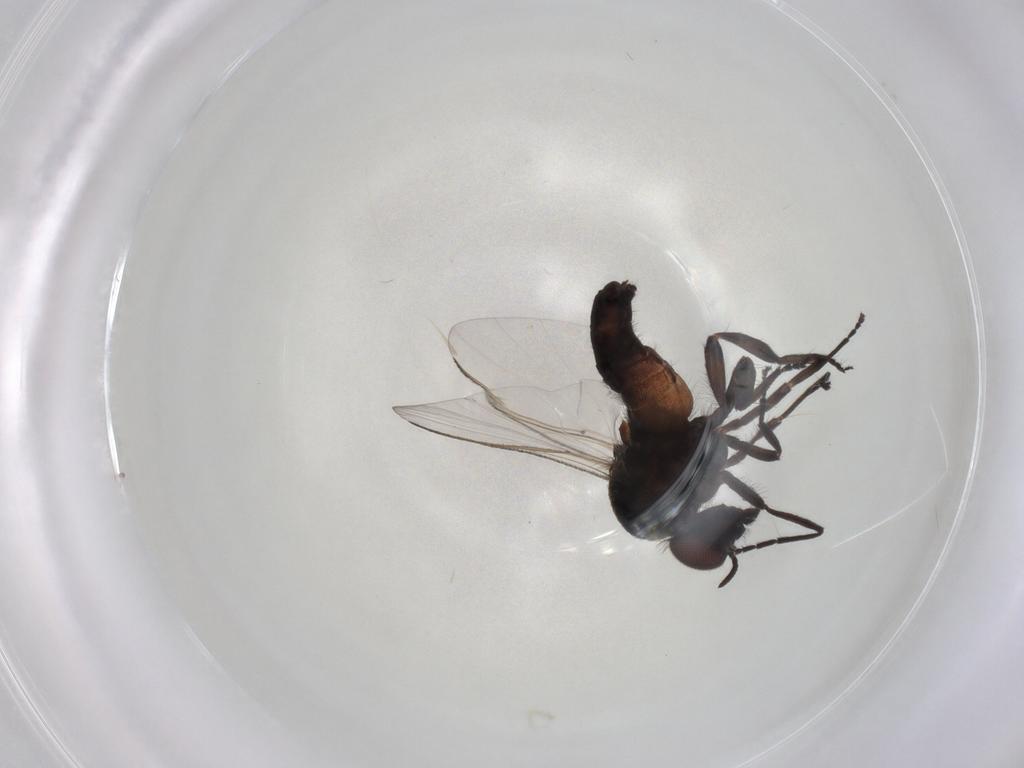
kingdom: Animalia
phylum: Arthropoda
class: Insecta
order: Diptera
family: Simuliidae
